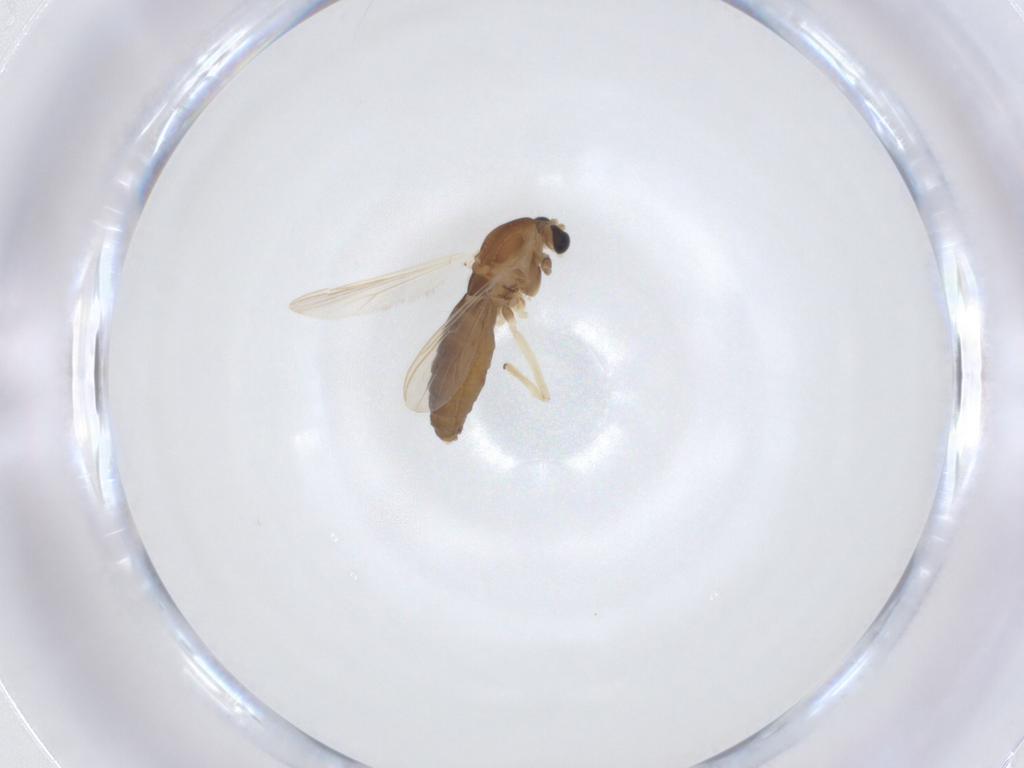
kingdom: Animalia
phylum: Arthropoda
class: Insecta
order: Diptera
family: Chironomidae
